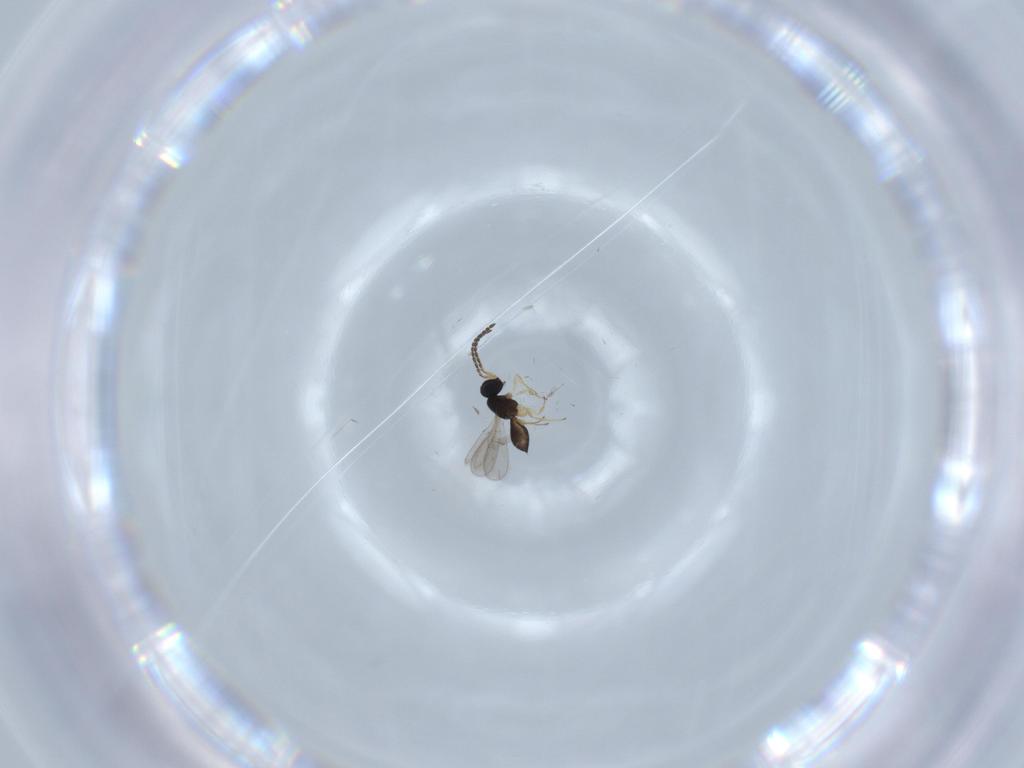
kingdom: Animalia
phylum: Arthropoda
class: Insecta
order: Hymenoptera
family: Scelionidae
